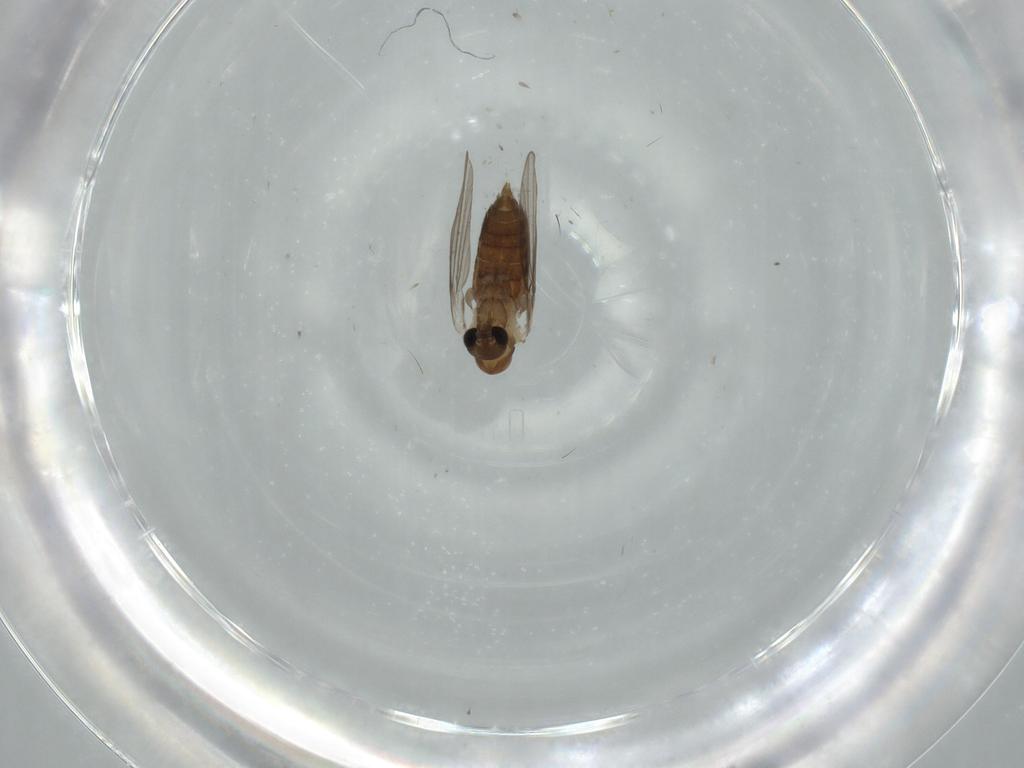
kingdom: Animalia
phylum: Arthropoda
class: Insecta
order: Diptera
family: Psychodidae
